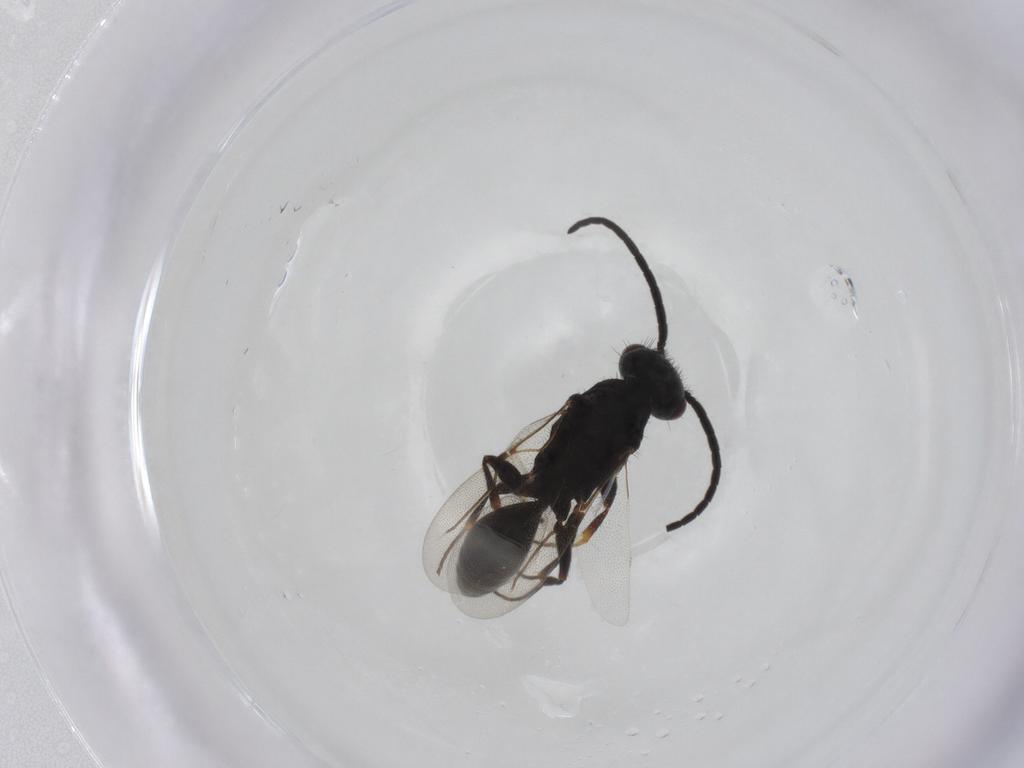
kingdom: Animalia
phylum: Arthropoda
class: Insecta
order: Hymenoptera
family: Bethylidae
